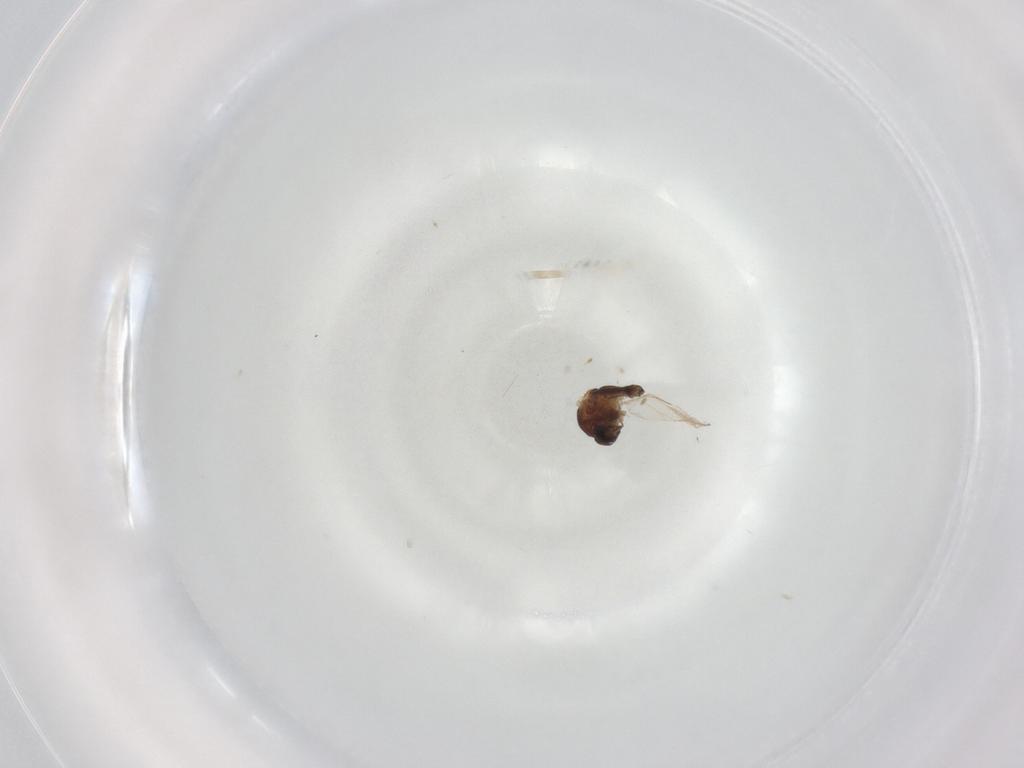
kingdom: Animalia
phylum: Arthropoda
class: Insecta
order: Diptera
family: Ceratopogonidae
